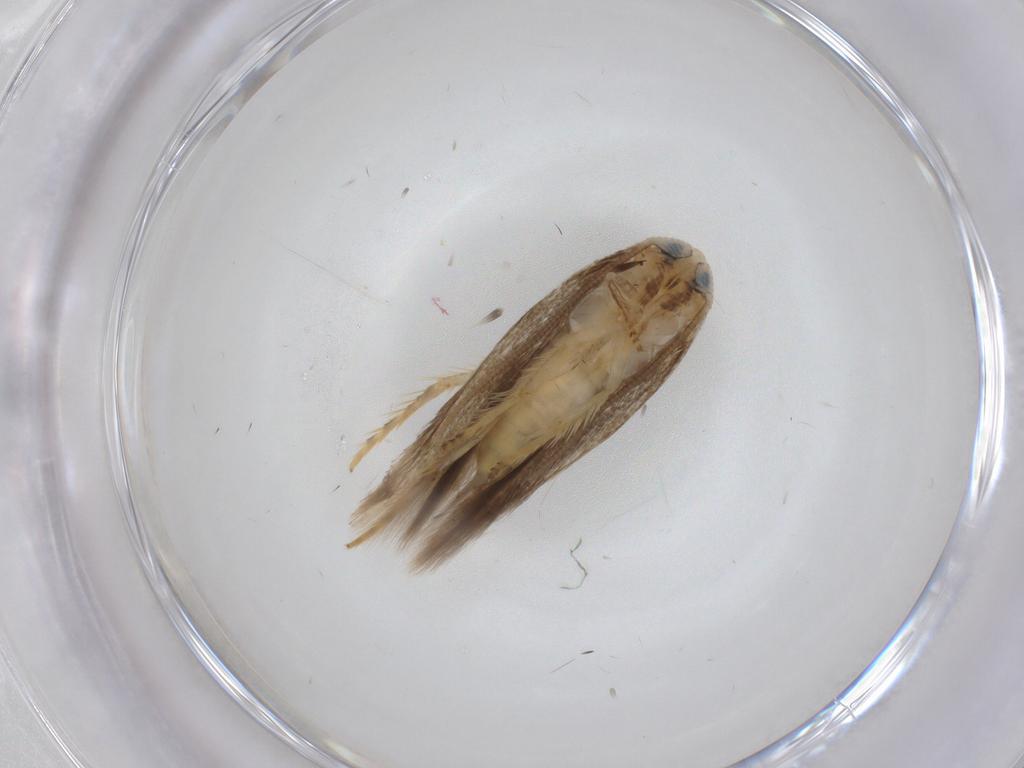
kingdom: Animalia
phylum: Arthropoda
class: Insecta
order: Lepidoptera
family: Opostegidae
